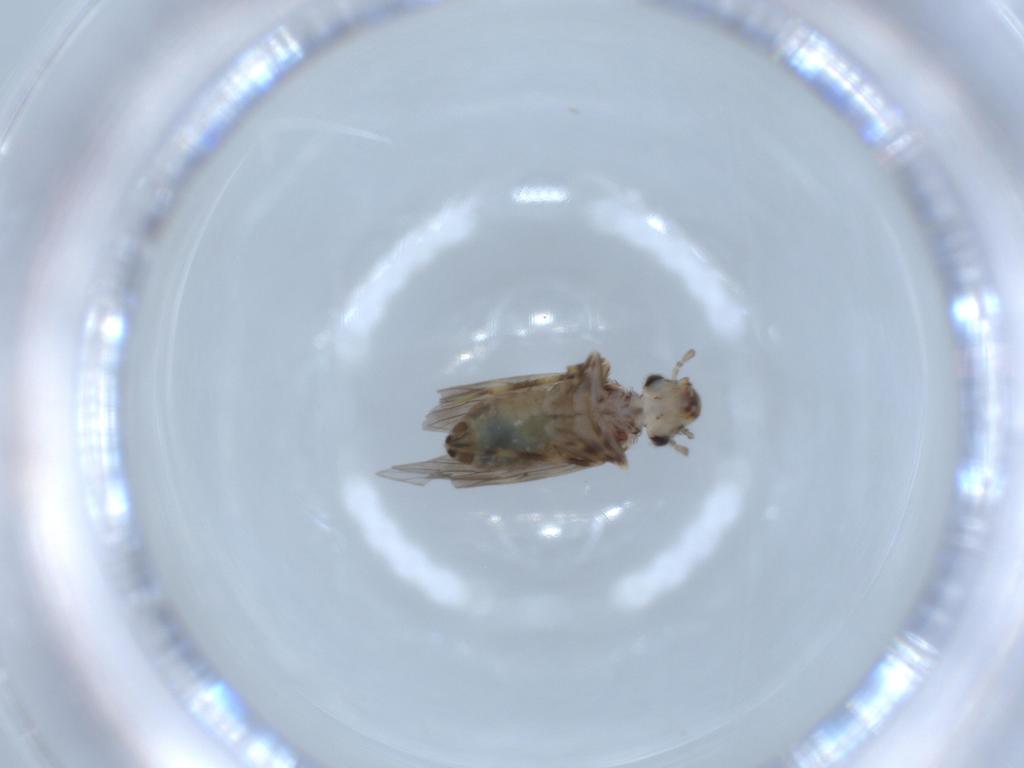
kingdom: Animalia
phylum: Arthropoda
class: Insecta
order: Psocodea
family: Lepidopsocidae
